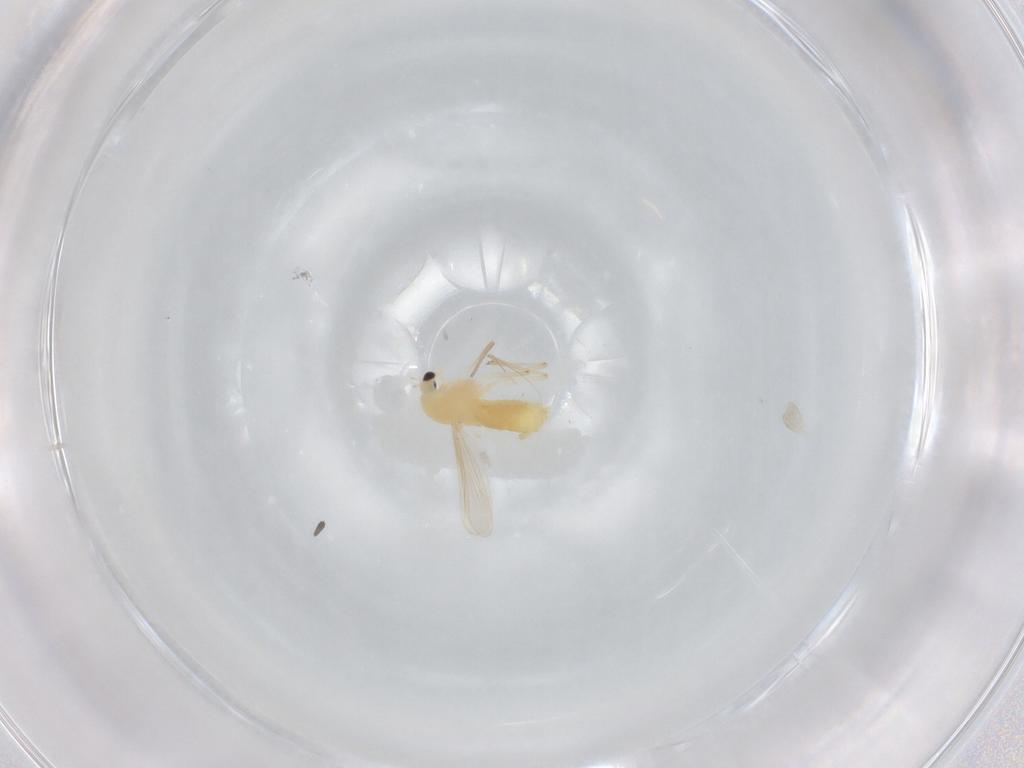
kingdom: Animalia
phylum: Arthropoda
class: Insecta
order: Diptera
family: Chironomidae
